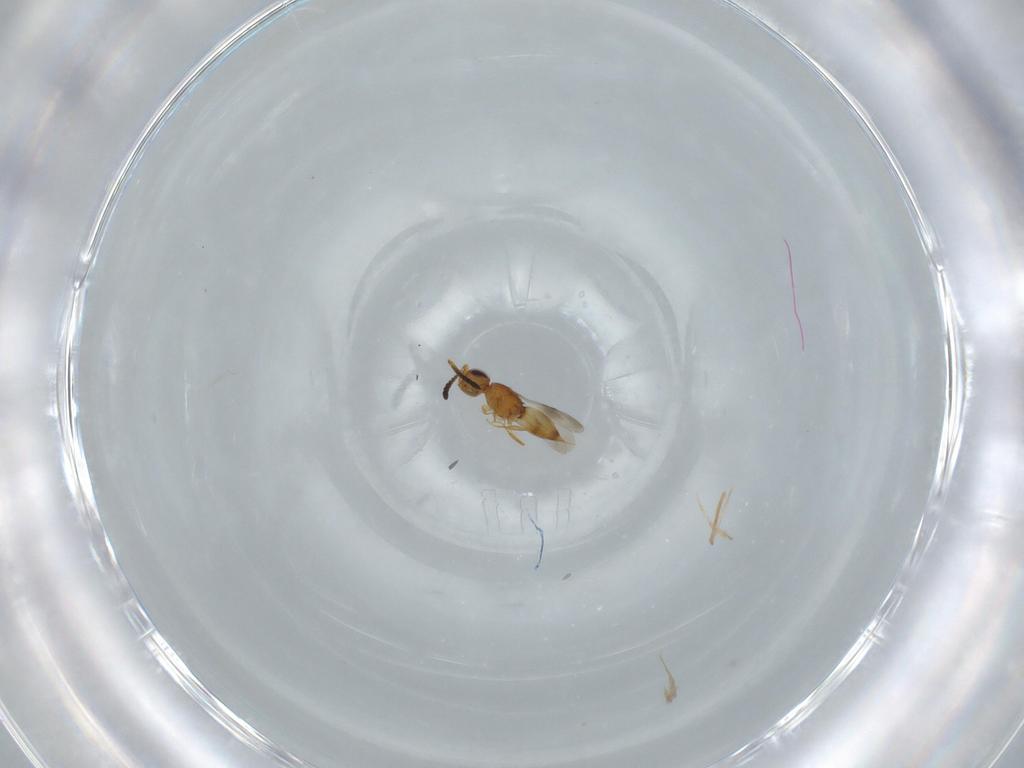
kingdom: Animalia
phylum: Arthropoda
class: Insecta
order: Hymenoptera
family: Ceraphronidae
